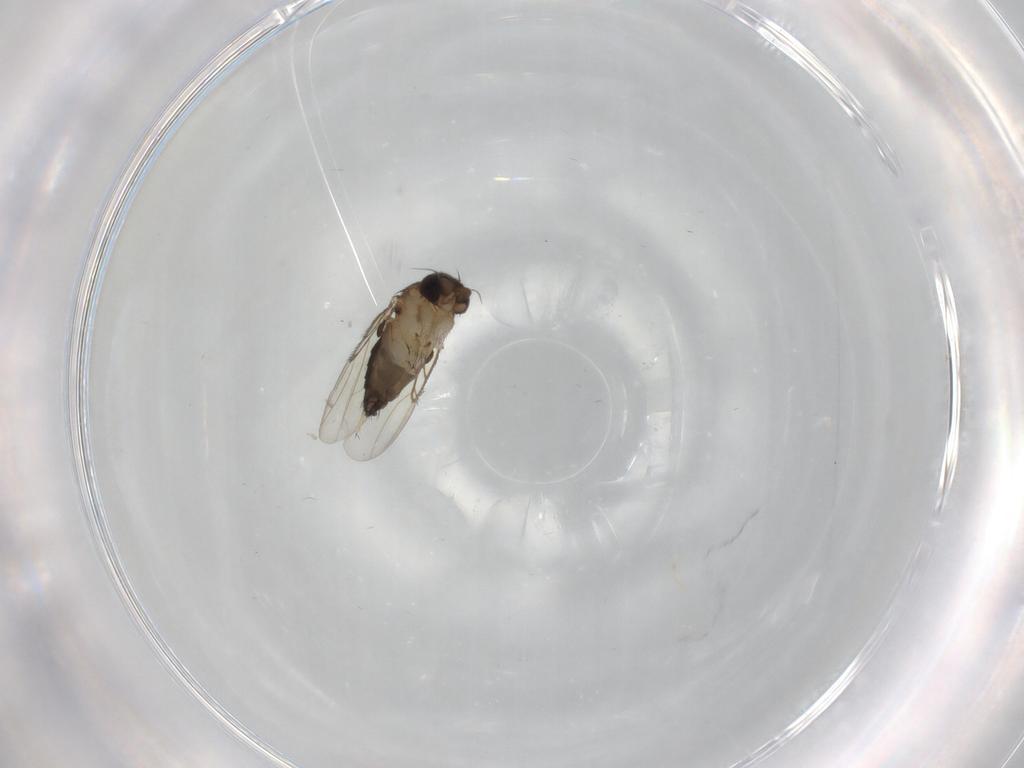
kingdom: Animalia
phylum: Arthropoda
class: Insecta
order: Diptera
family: Phoridae
